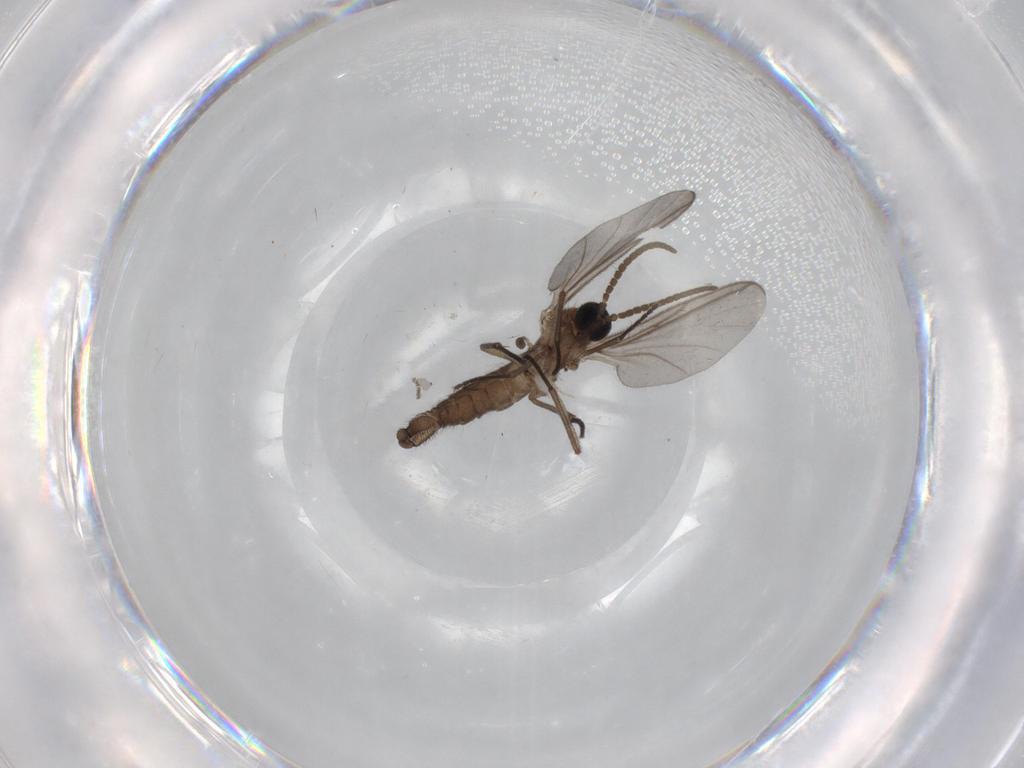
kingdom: Animalia
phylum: Arthropoda
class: Insecta
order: Diptera
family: Sciaridae
